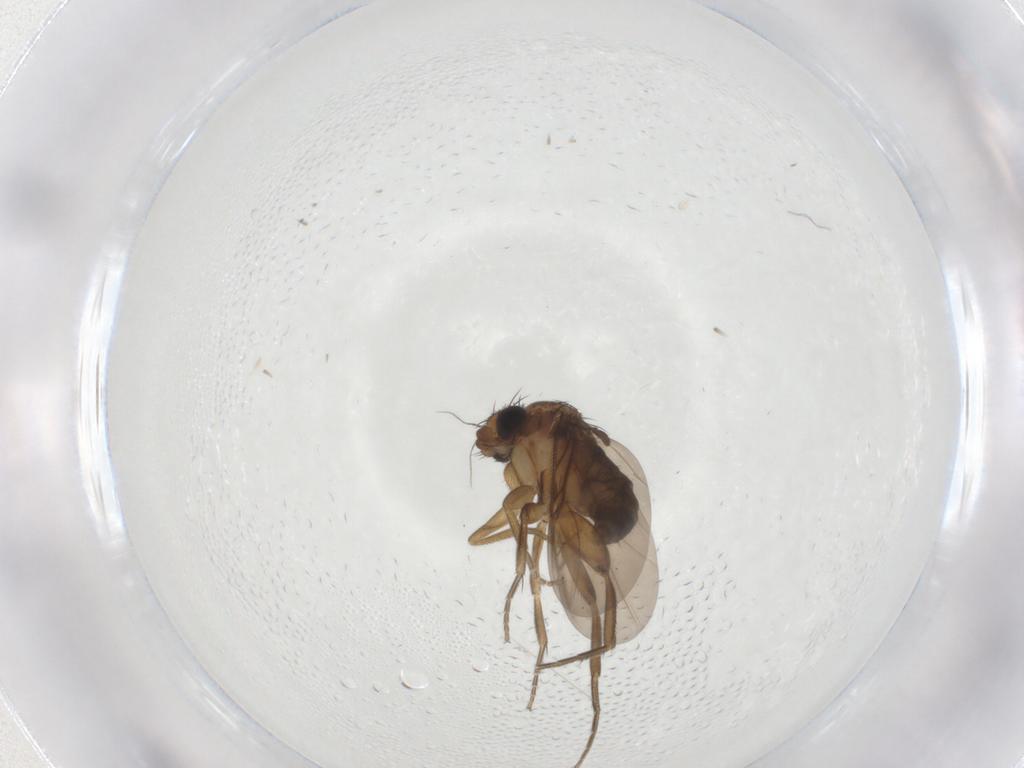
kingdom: Animalia
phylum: Arthropoda
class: Insecta
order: Diptera
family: Phoridae
